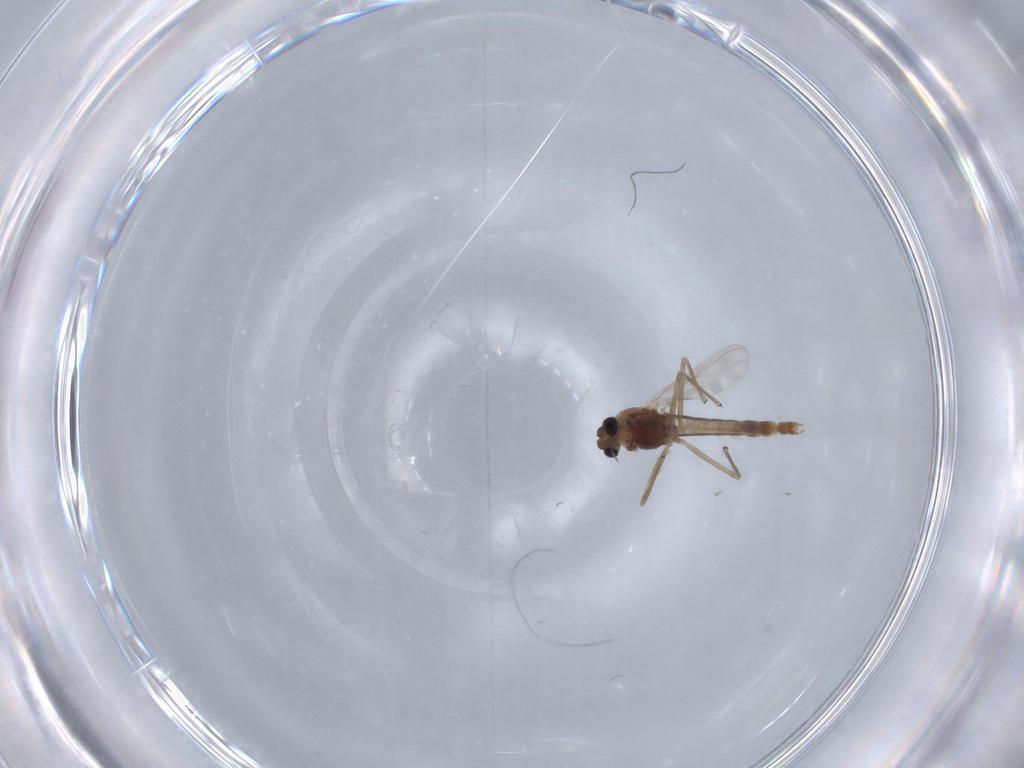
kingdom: Animalia
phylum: Arthropoda
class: Insecta
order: Diptera
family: Chironomidae
